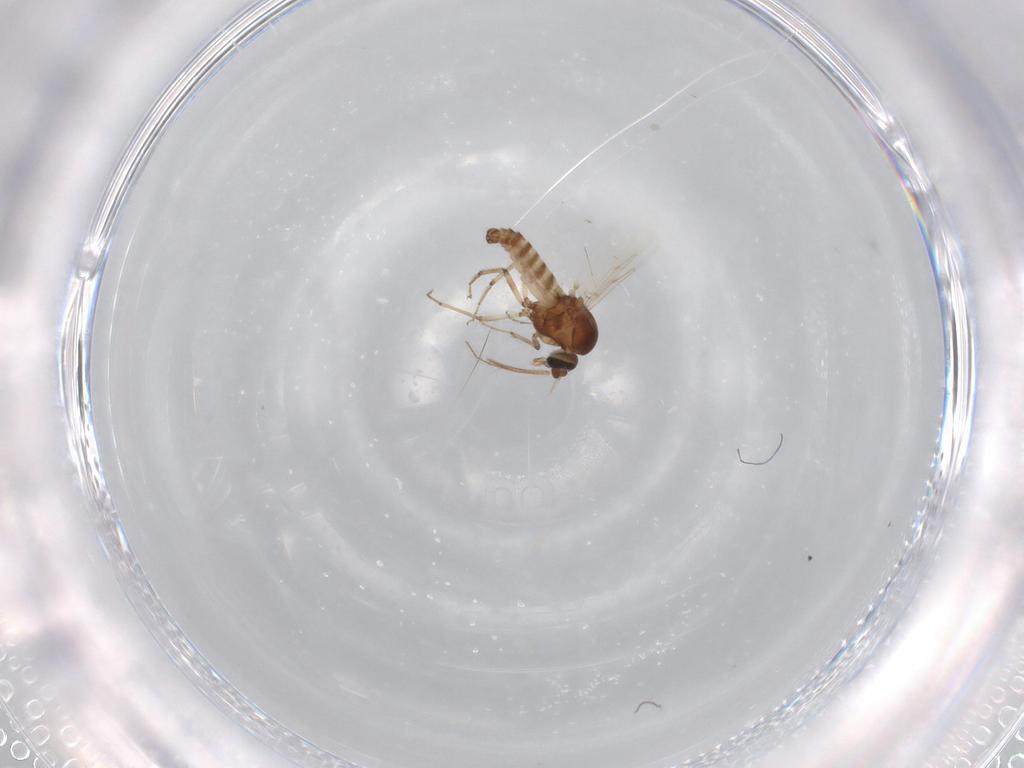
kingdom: Animalia
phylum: Arthropoda
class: Insecta
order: Diptera
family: Ceratopogonidae
